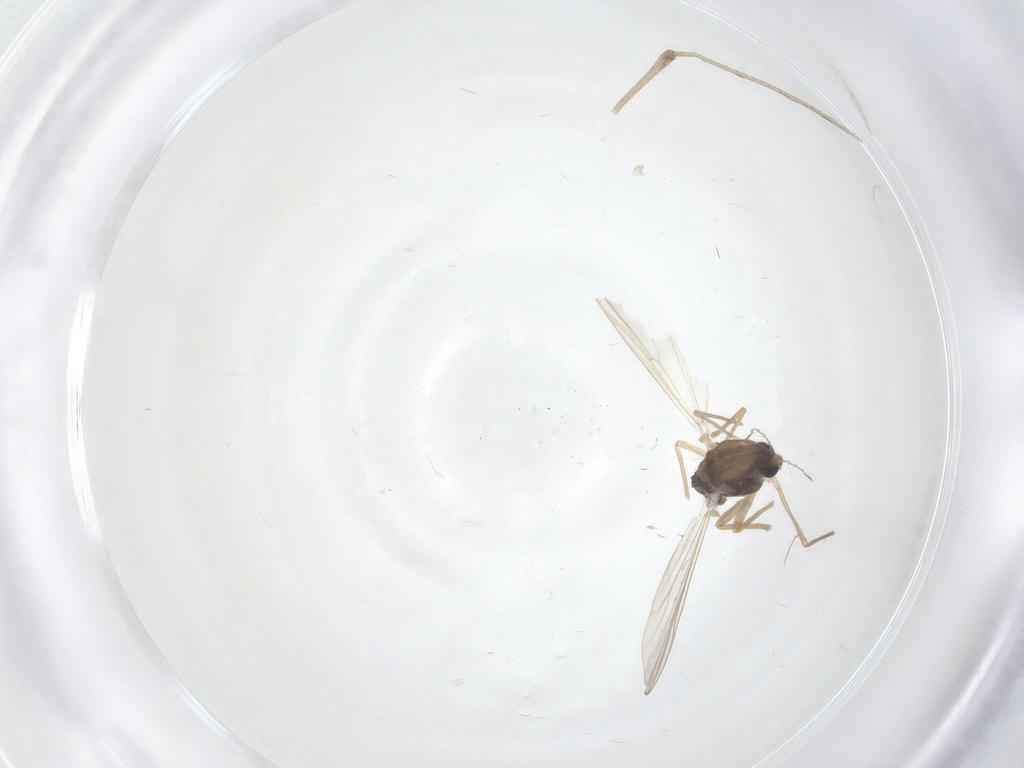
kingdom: Animalia
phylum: Arthropoda
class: Insecta
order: Diptera
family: Chironomidae
